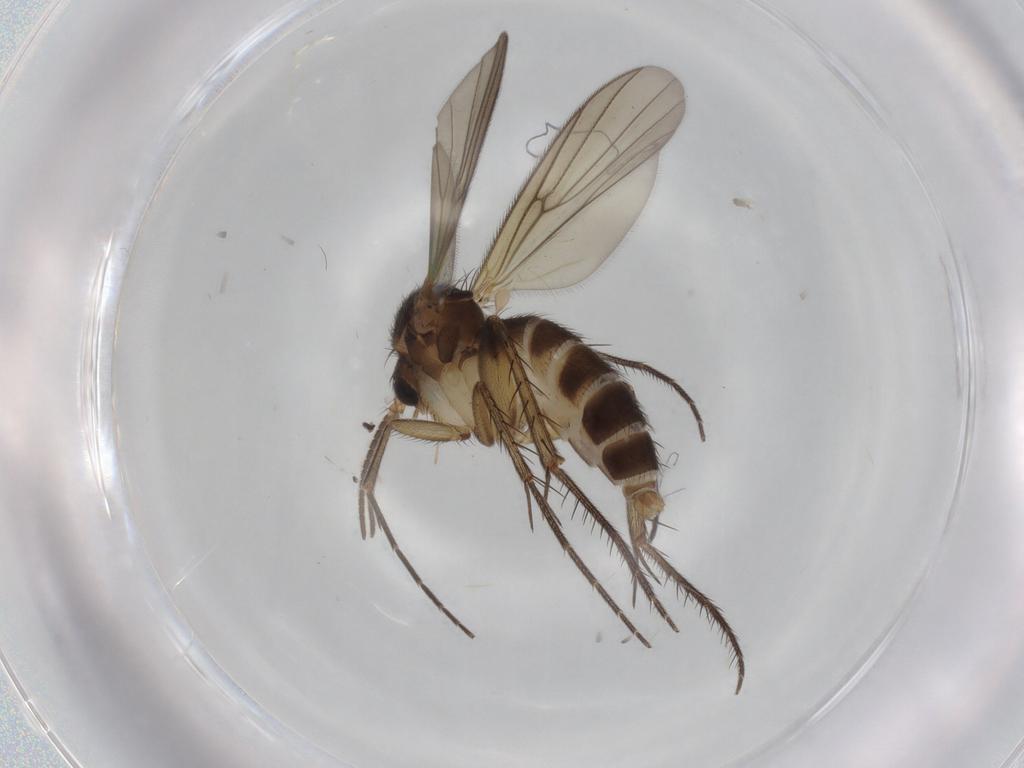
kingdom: Animalia
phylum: Arthropoda
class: Insecta
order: Diptera
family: Mycetophilidae
